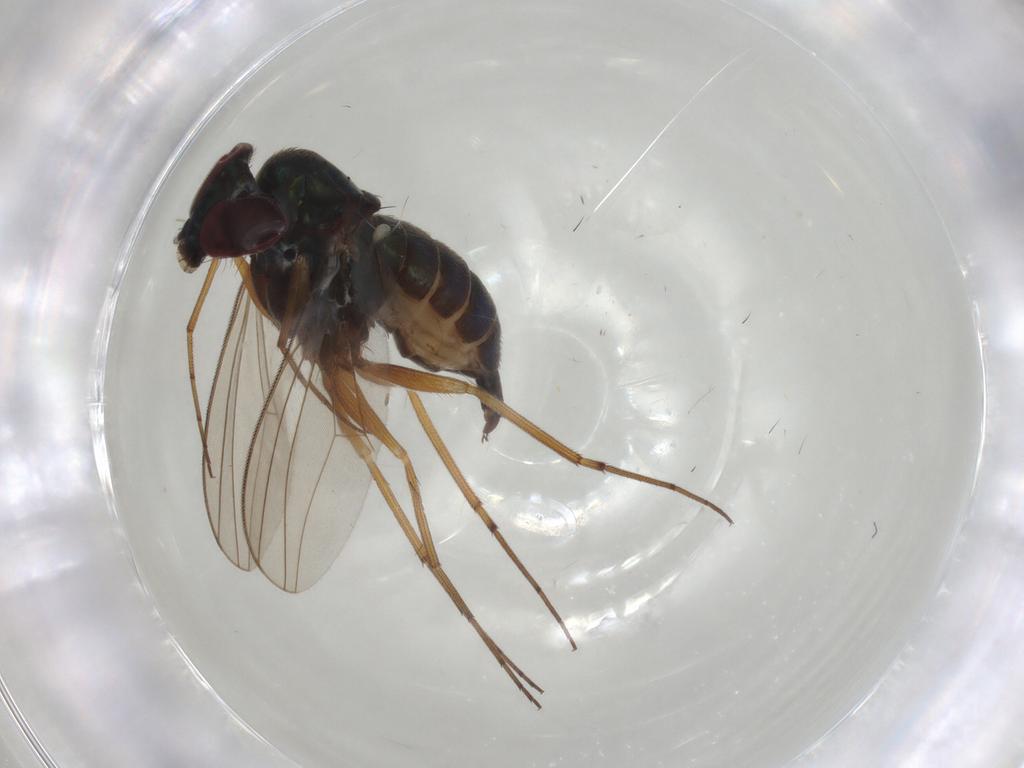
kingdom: Animalia
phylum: Arthropoda
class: Insecta
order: Diptera
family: Dolichopodidae
